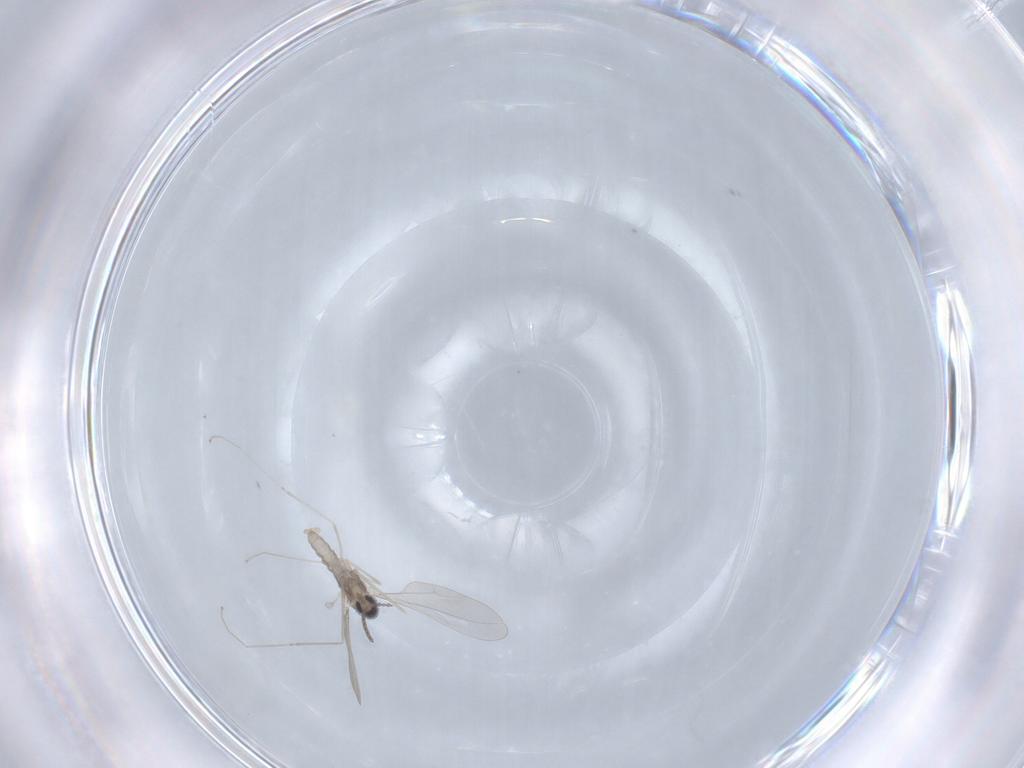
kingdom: Animalia
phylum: Arthropoda
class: Insecta
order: Diptera
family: Cecidomyiidae
